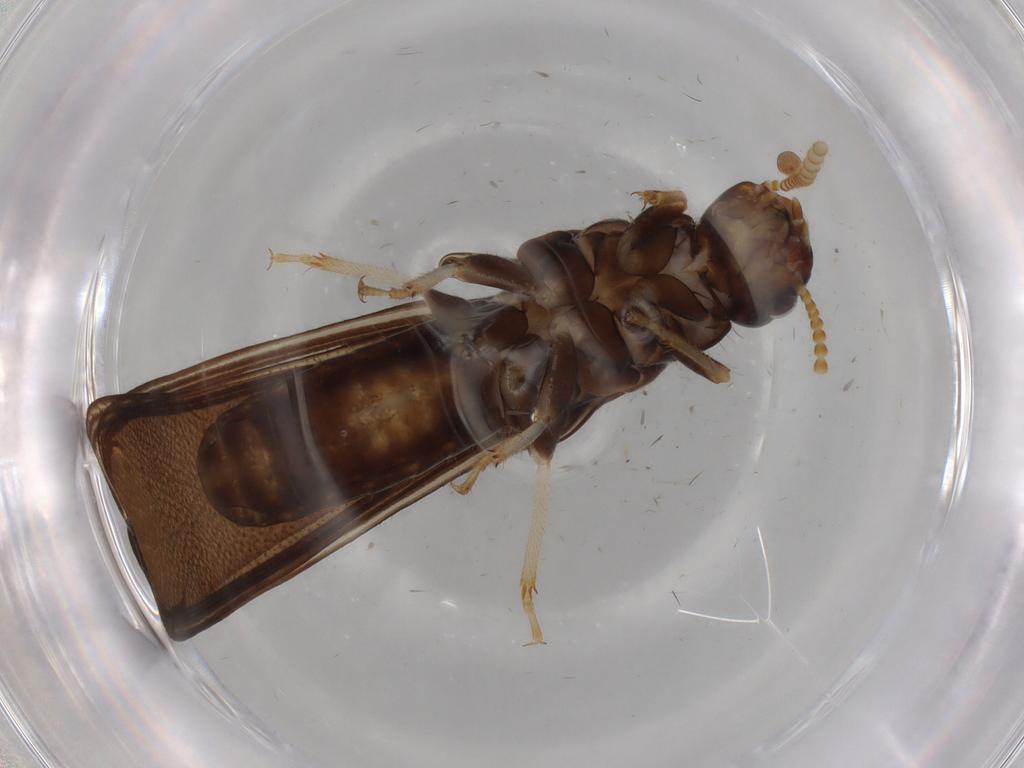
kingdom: Animalia
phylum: Arthropoda
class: Insecta
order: Blattodea
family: Kalotermitidae
